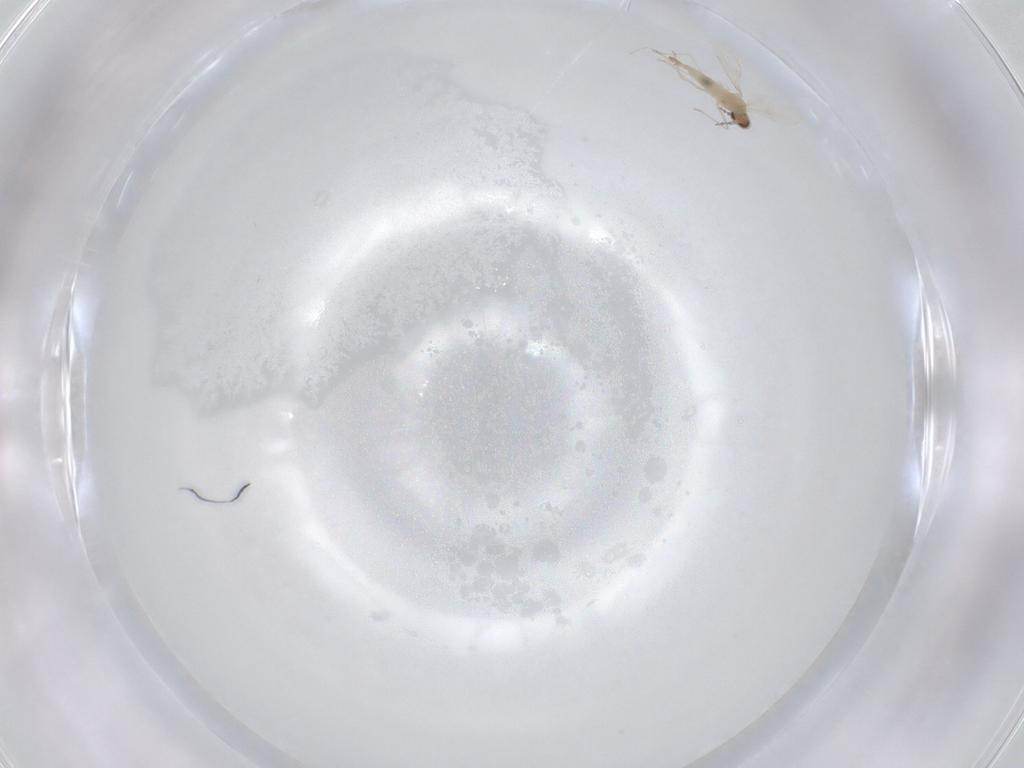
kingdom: Animalia
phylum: Arthropoda
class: Insecta
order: Diptera
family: Cecidomyiidae
